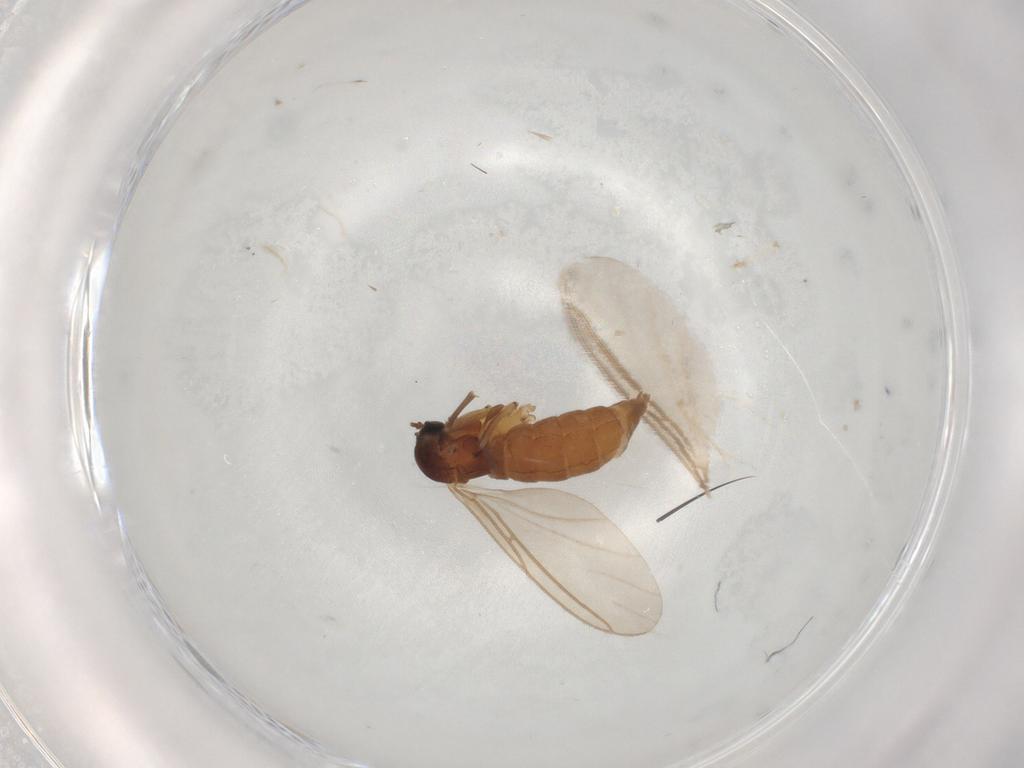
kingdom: Animalia
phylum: Arthropoda
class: Insecta
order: Diptera
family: Sciaridae
